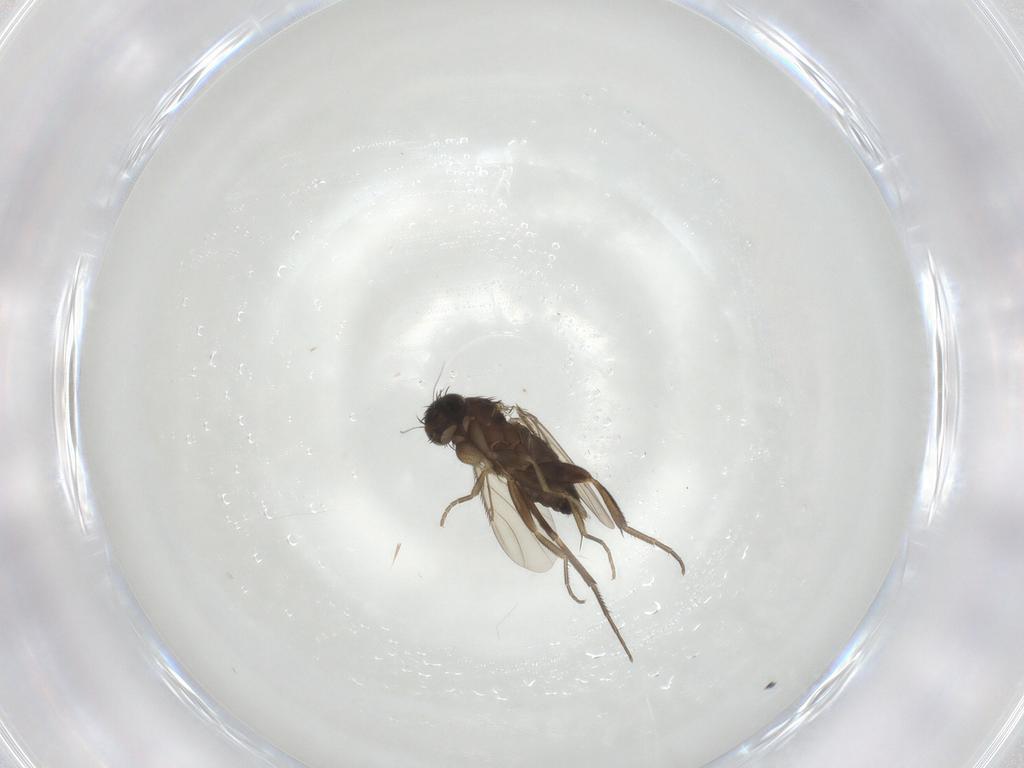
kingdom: Animalia
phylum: Arthropoda
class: Insecta
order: Diptera
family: Phoridae
